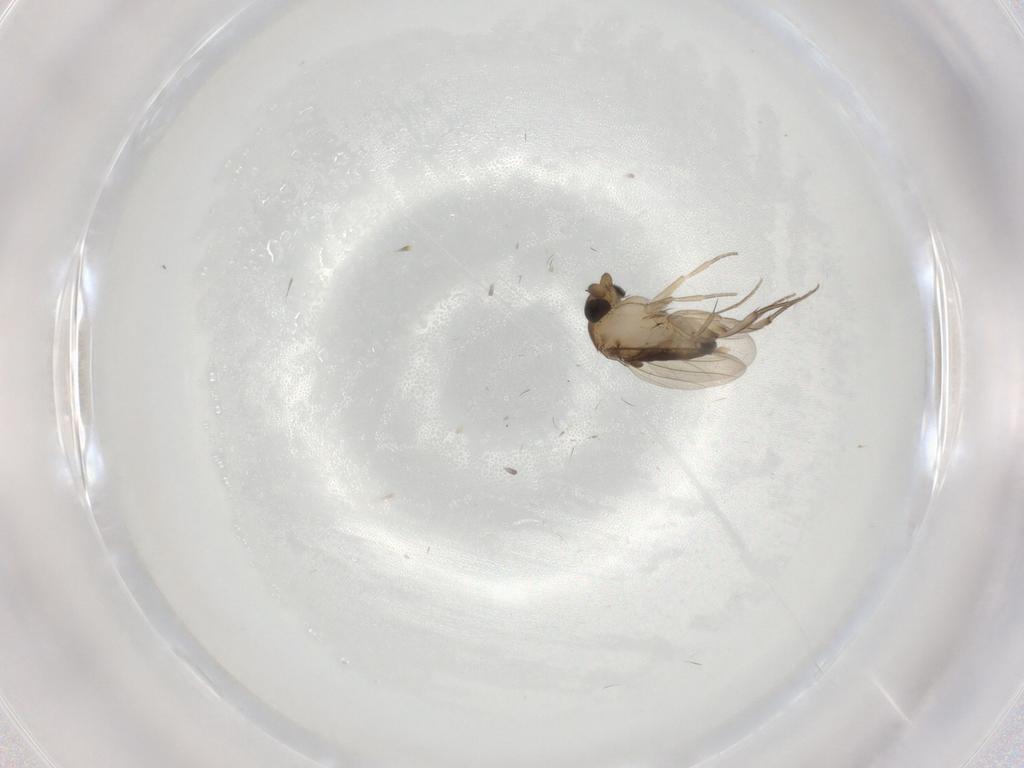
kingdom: Animalia
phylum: Arthropoda
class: Insecta
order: Diptera
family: Phoridae
